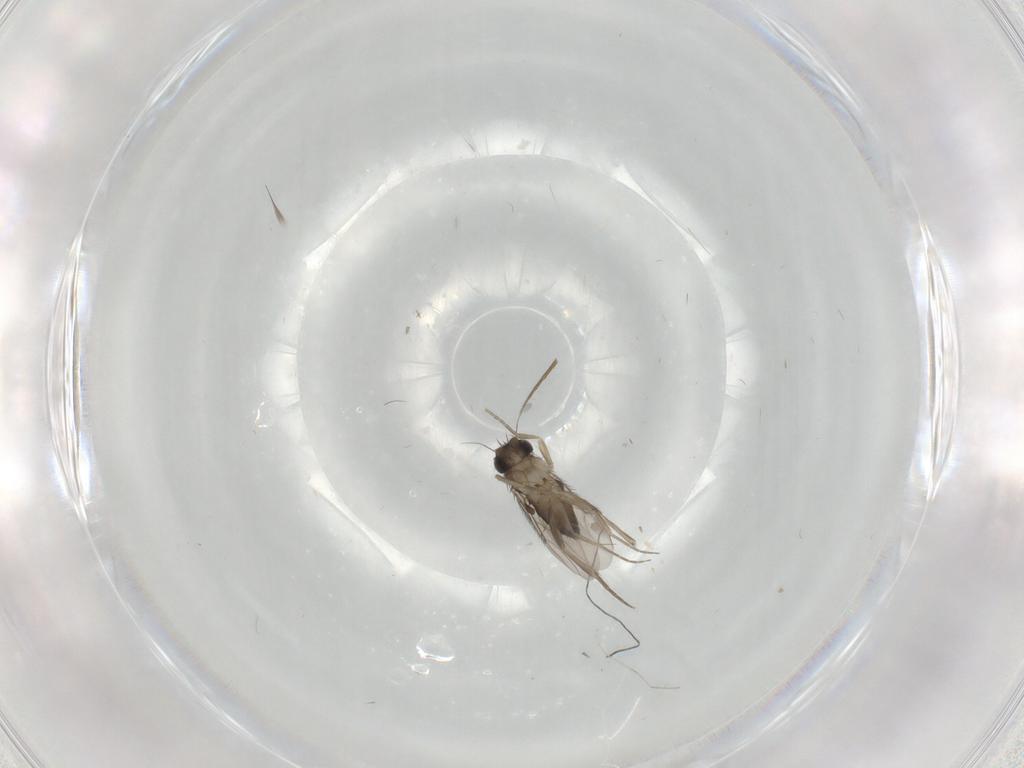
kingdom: Animalia
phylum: Arthropoda
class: Insecta
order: Diptera
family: Phoridae
